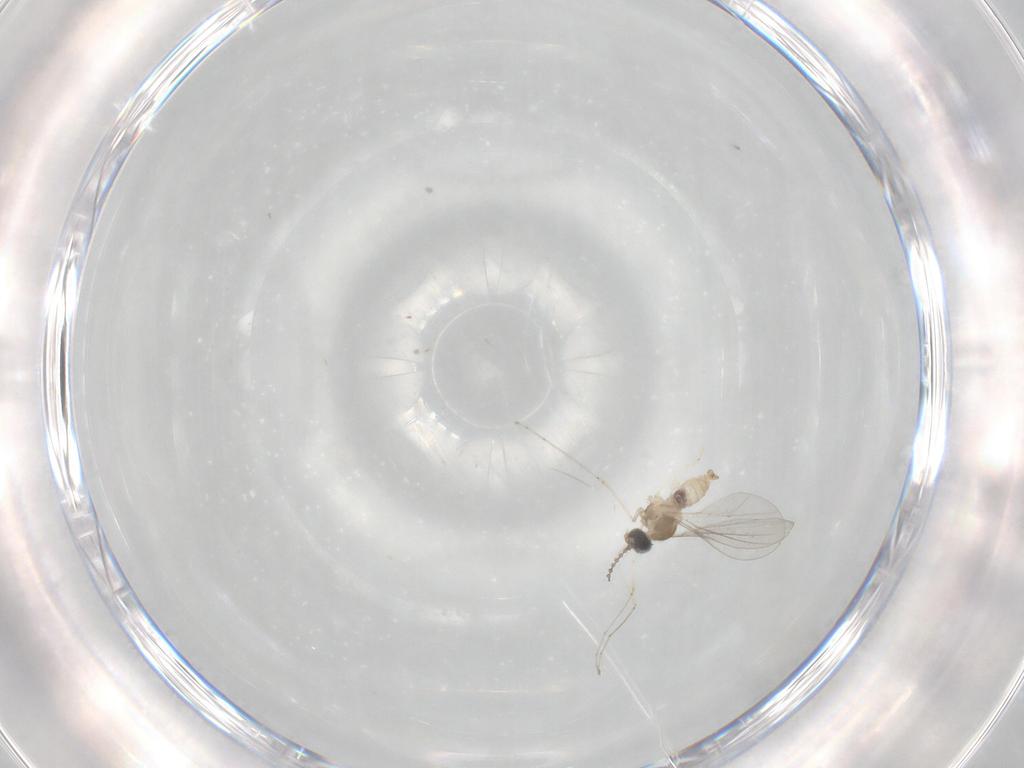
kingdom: Animalia
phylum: Arthropoda
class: Insecta
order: Diptera
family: Cecidomyiidae
